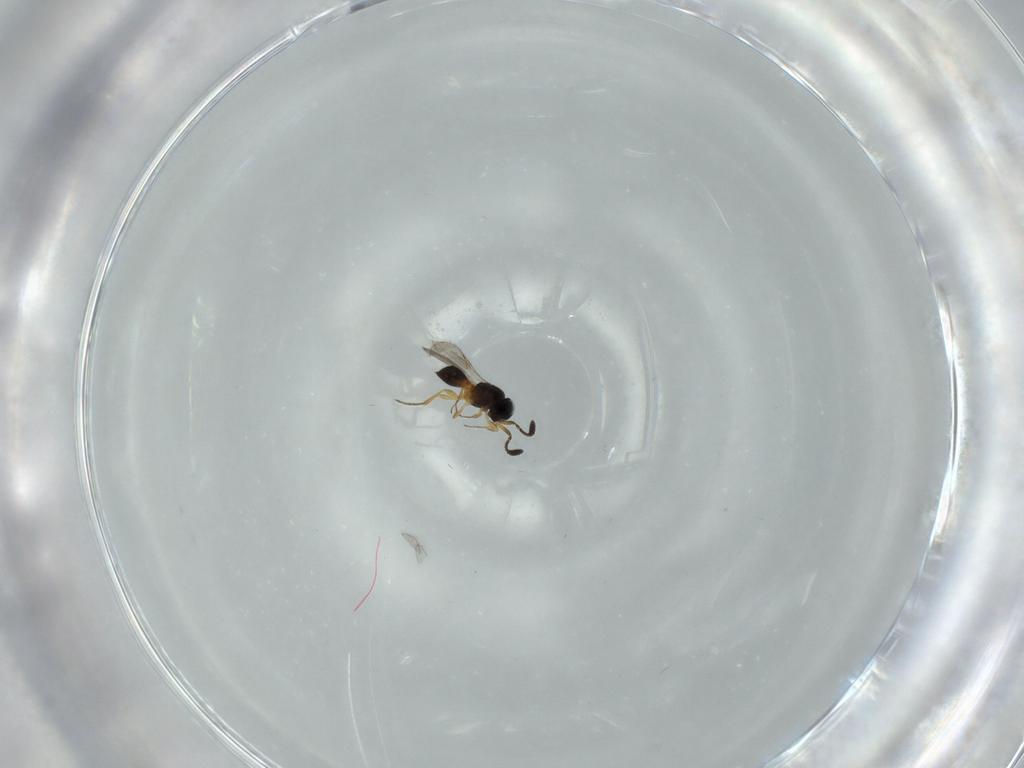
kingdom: Animalia
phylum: Arthropoda
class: Insecta
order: Hymenoptera
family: Scelionidae
